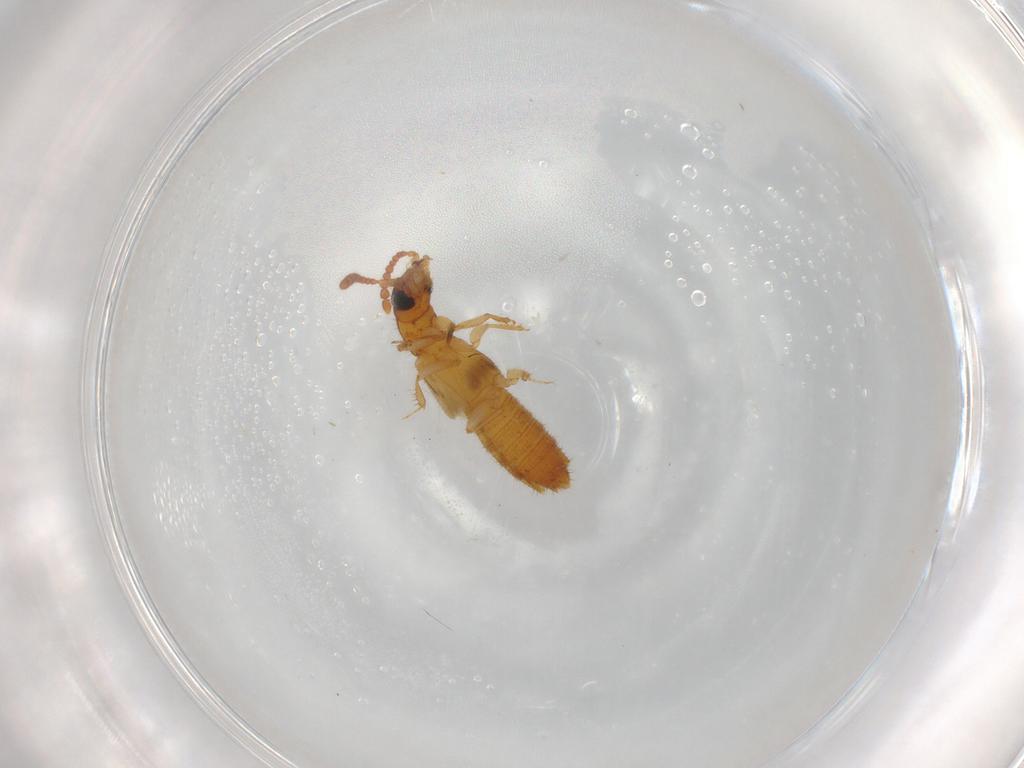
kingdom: Animalia
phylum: Arthropoda
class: Insecta
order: Coleoptera
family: Staphylinidae
